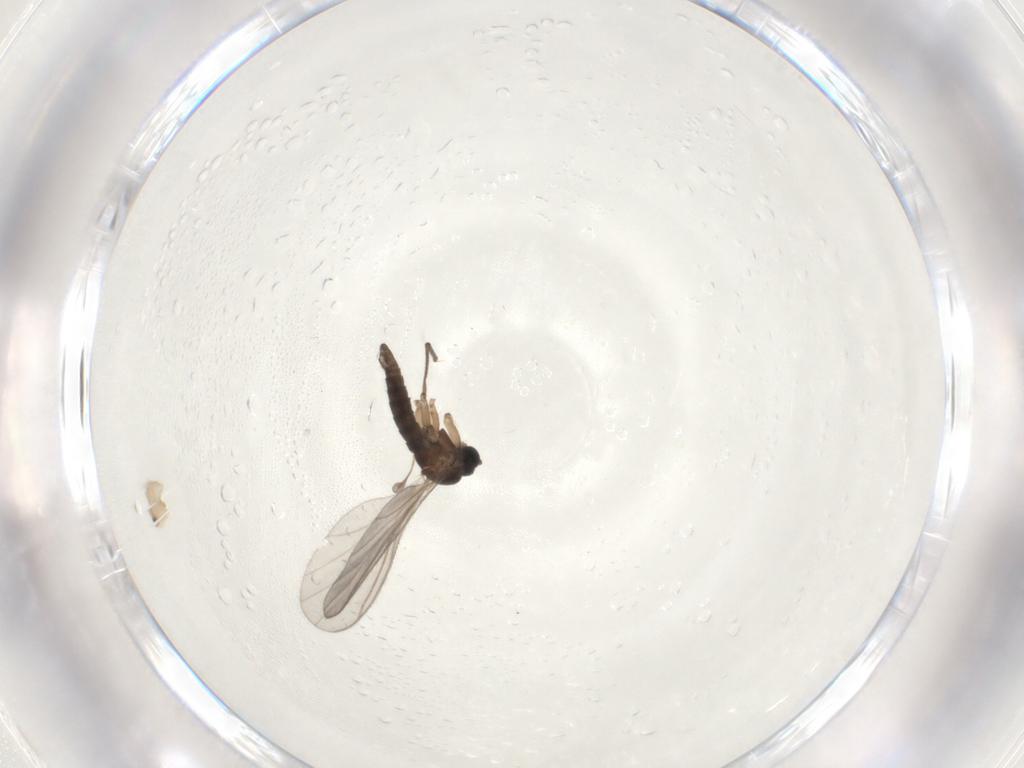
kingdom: Animalia
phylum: Arthropoda
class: Insecta
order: Diptera
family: Sciaridae
